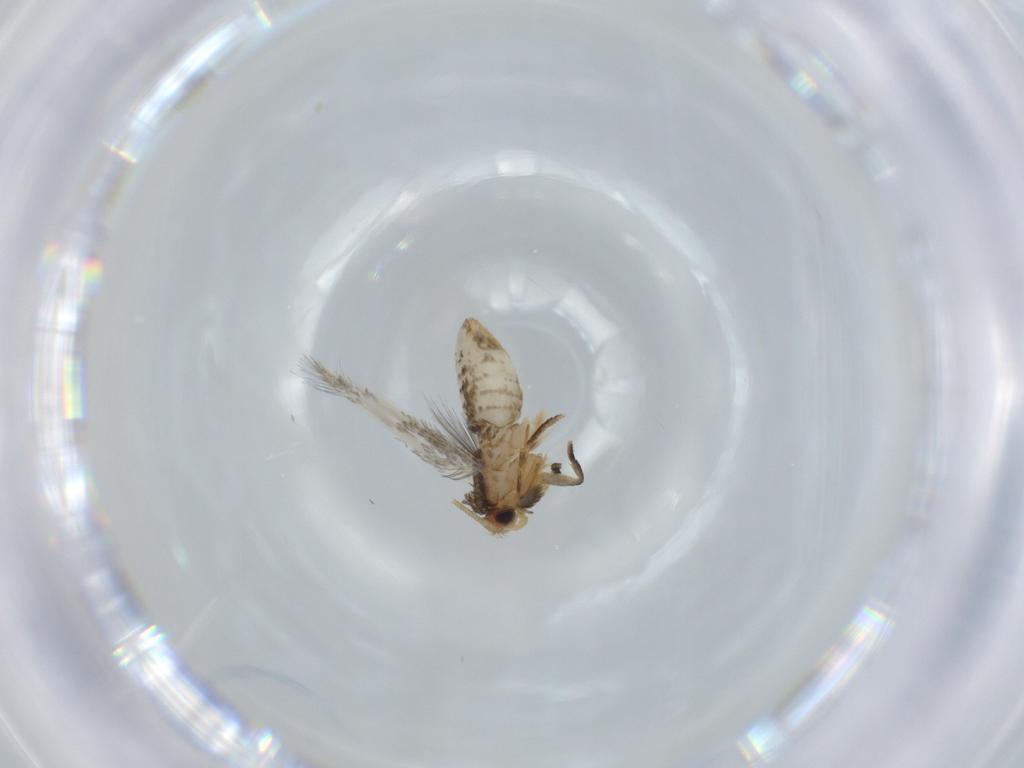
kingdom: Animalia
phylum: Arthropoda
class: Insecta
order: Lepidoptera
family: Nepticulidae
